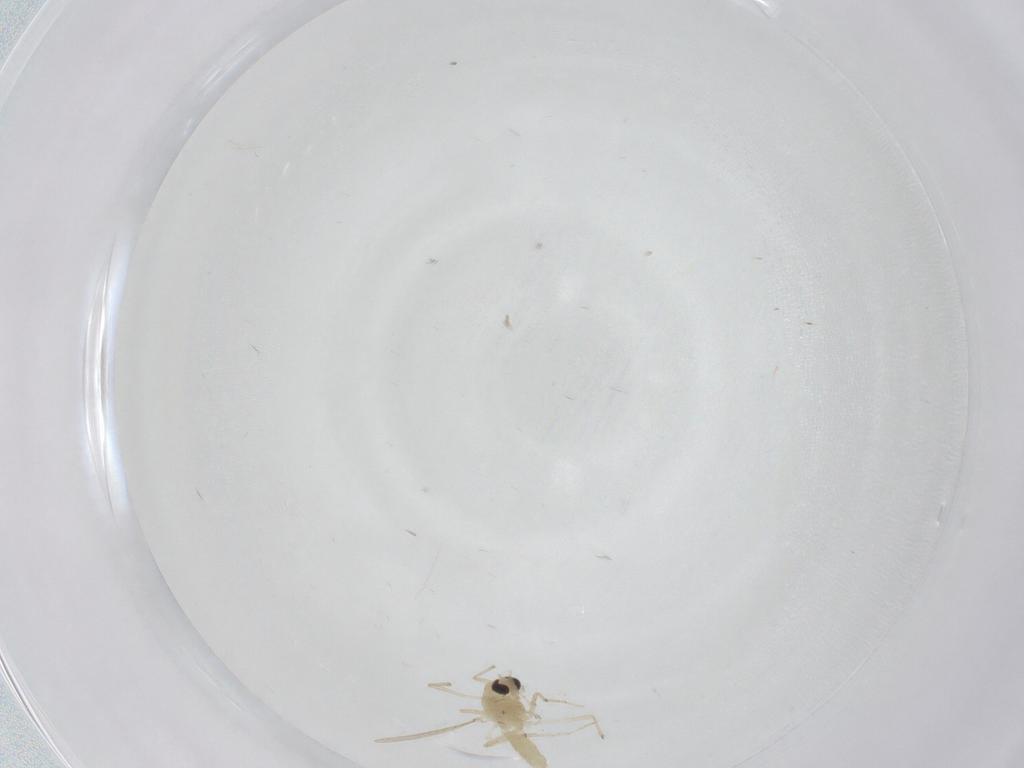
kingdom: Animalia
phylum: Arthropoda
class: Insecta
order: Diptera
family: Chironomidae
